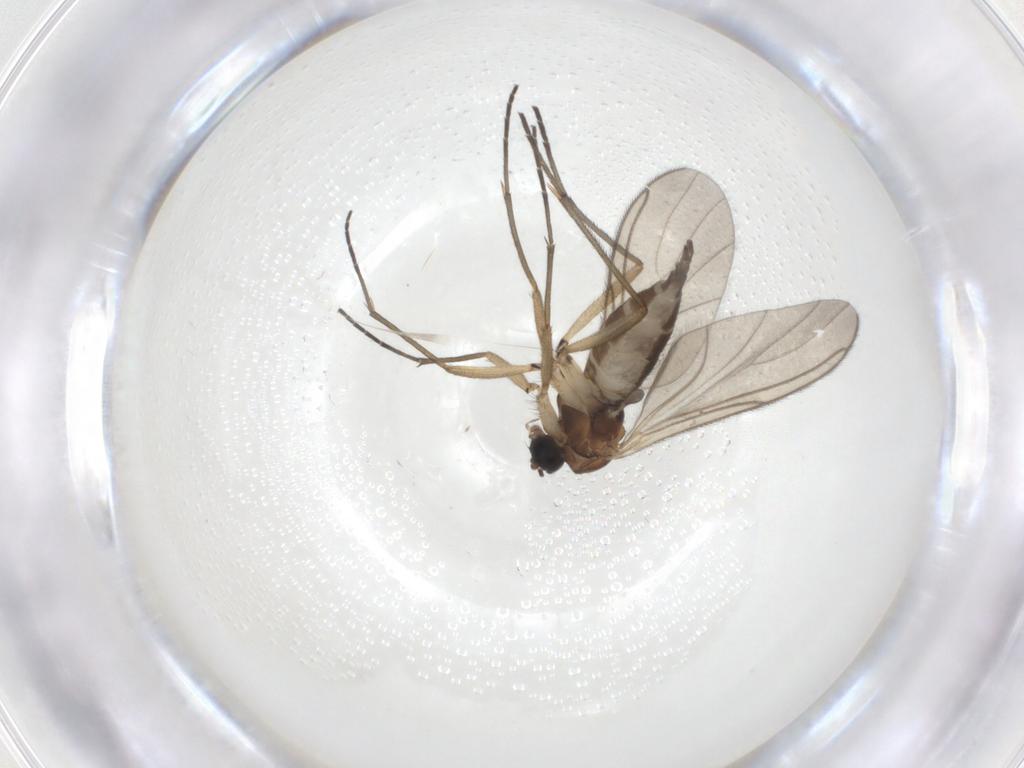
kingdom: Animalia
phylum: Arthropoda
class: Insecta
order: Diptera
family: Sciaridae
